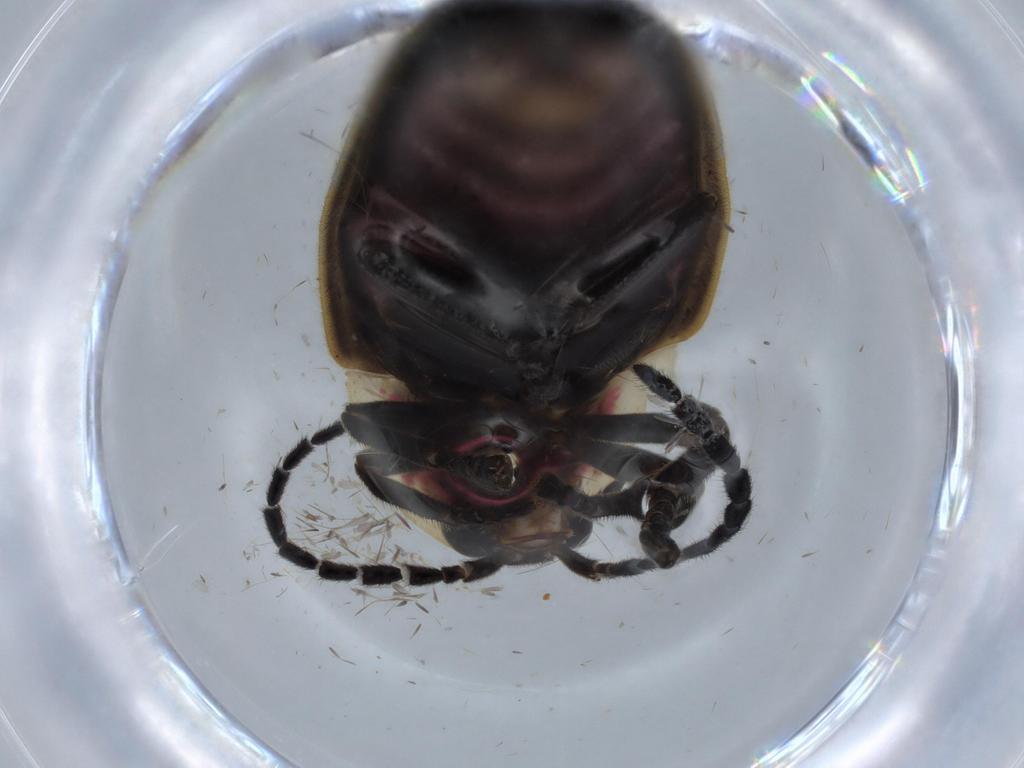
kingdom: Animalia
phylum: Arthropoda
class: Insecta
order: Coleoptera
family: Lampyridae
